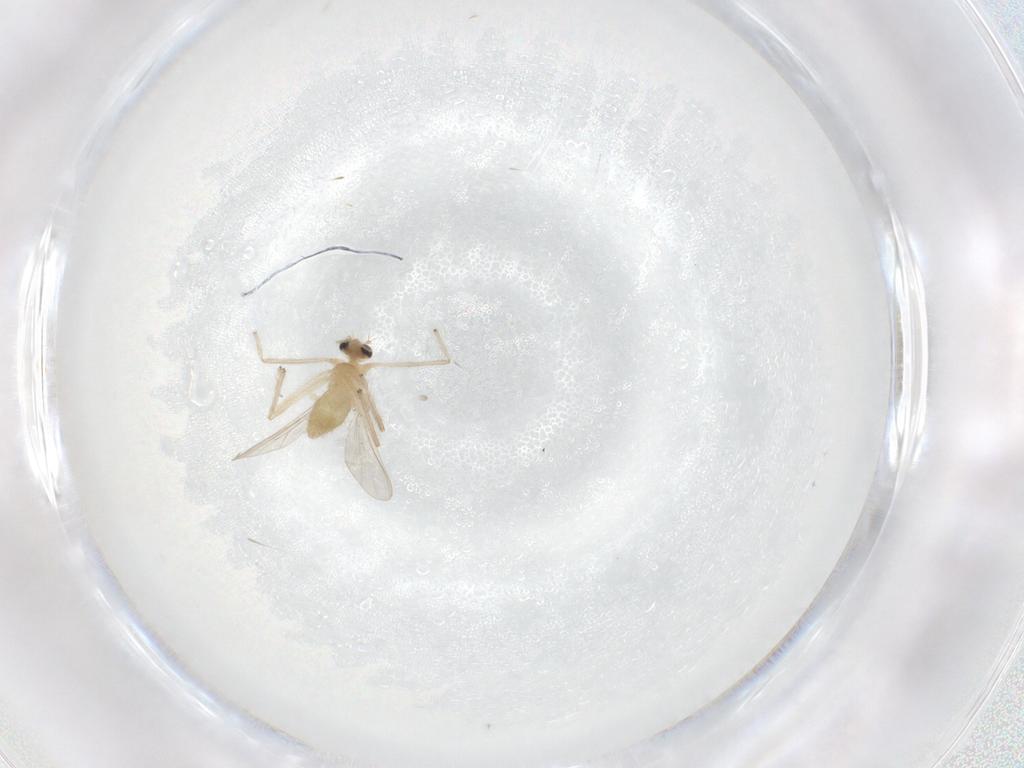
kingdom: Animalia
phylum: Arthropoda
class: Insecta
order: Diptera
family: Chironomidae
